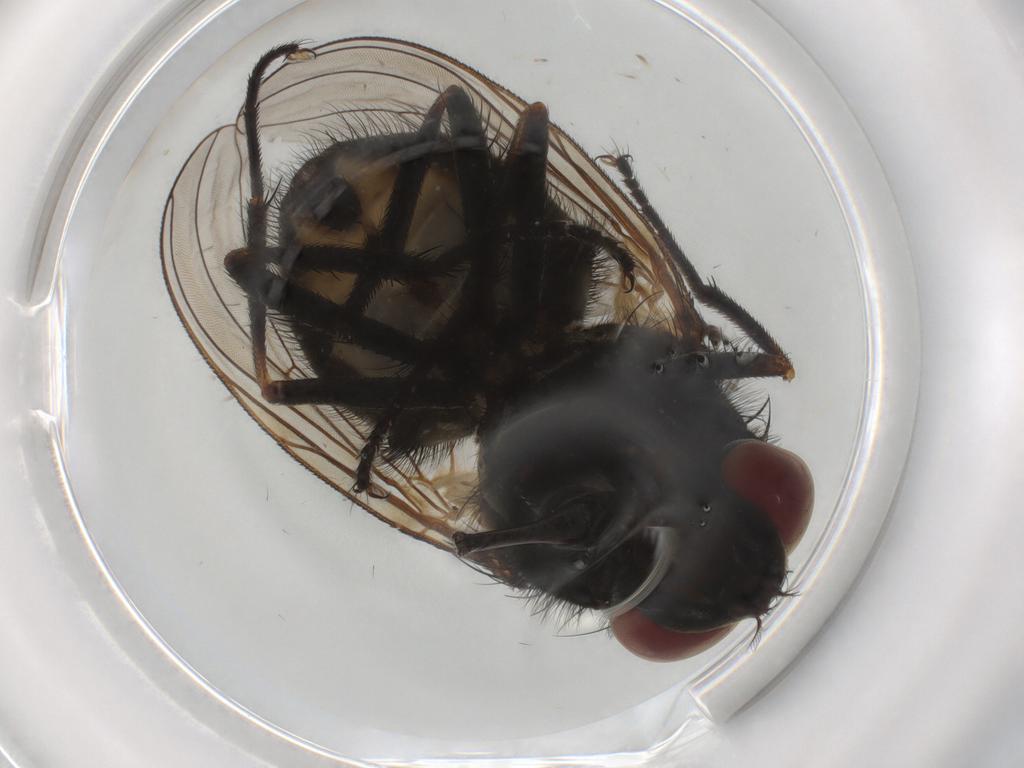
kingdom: Animalia
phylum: Arthropoda
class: Insecta
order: Diptera
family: Muscidae
